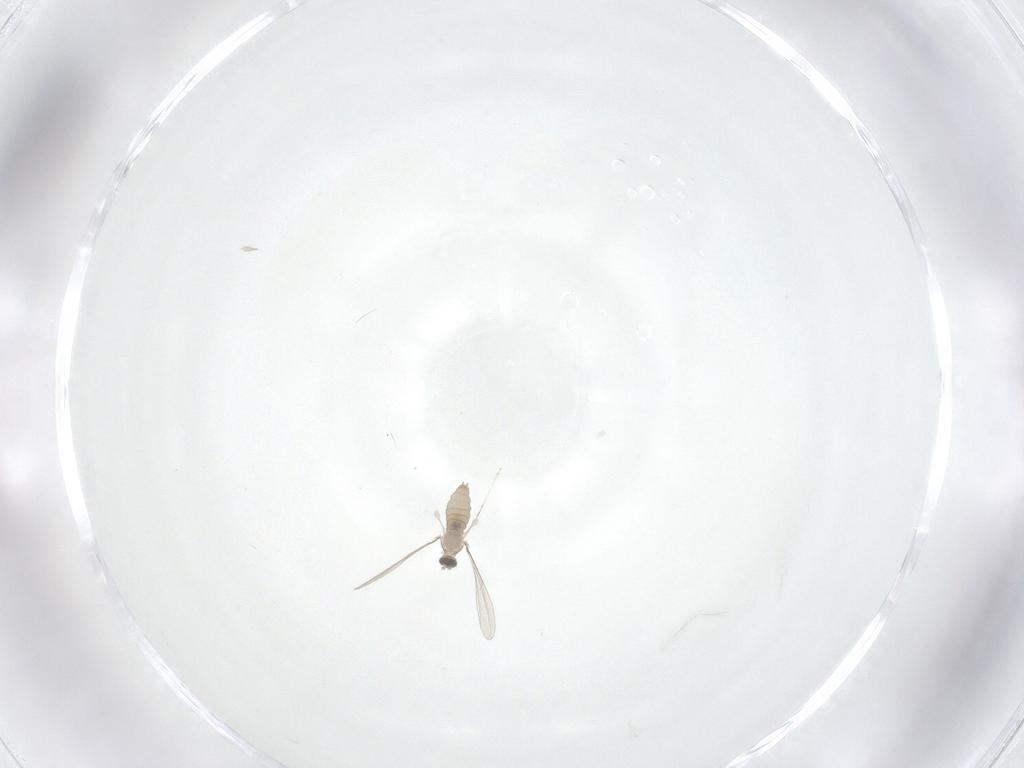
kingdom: Animalia
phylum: Arthropoda
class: Insecta
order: Diptera
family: Cecidomyiidae
